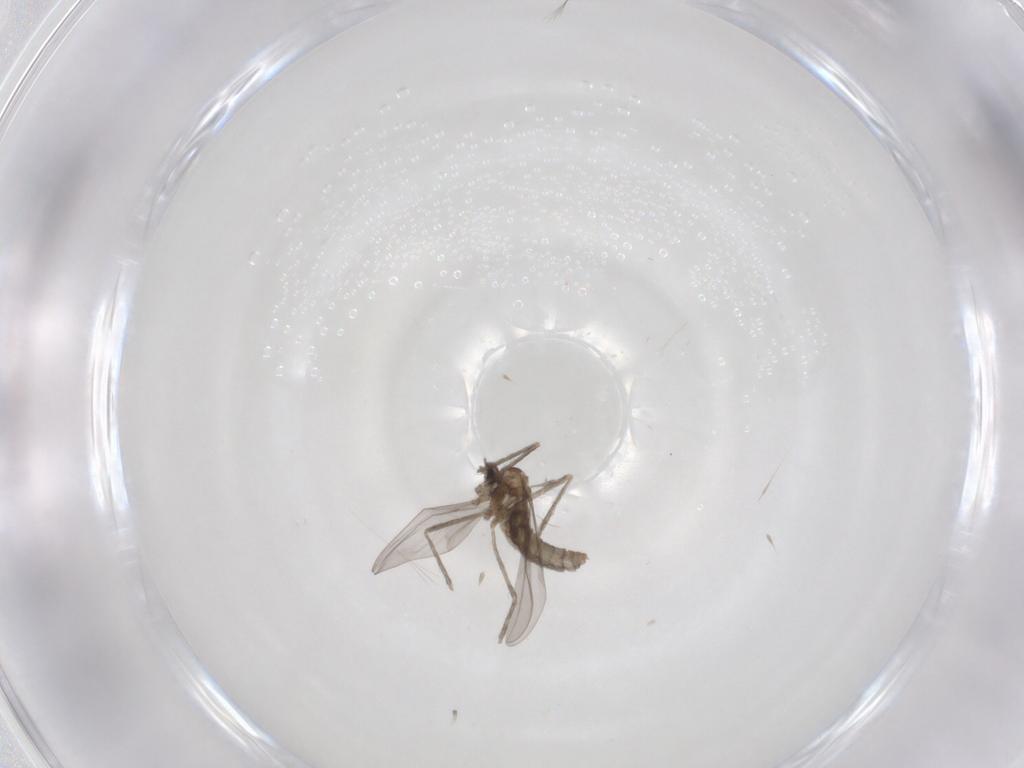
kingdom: Animalia
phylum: Arthropoda
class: Insecta
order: Diptera
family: Cecidomyiidae
